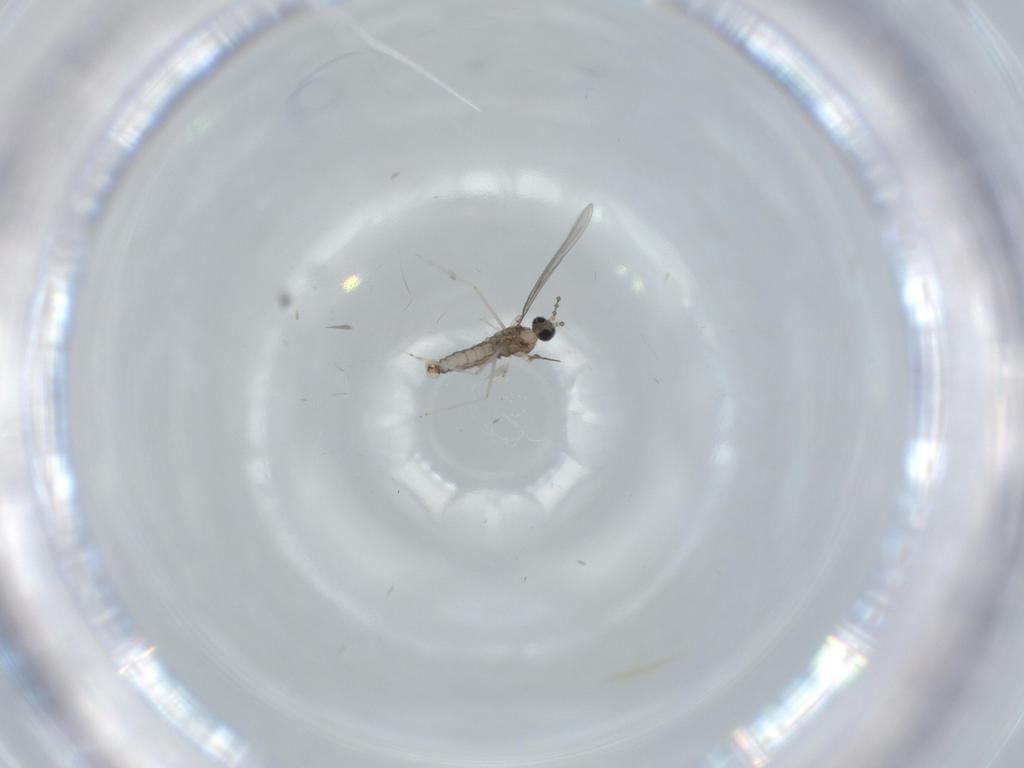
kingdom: Animalia
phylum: Arthropoda
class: Insecta
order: Diptera
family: Cecidomyiidae
